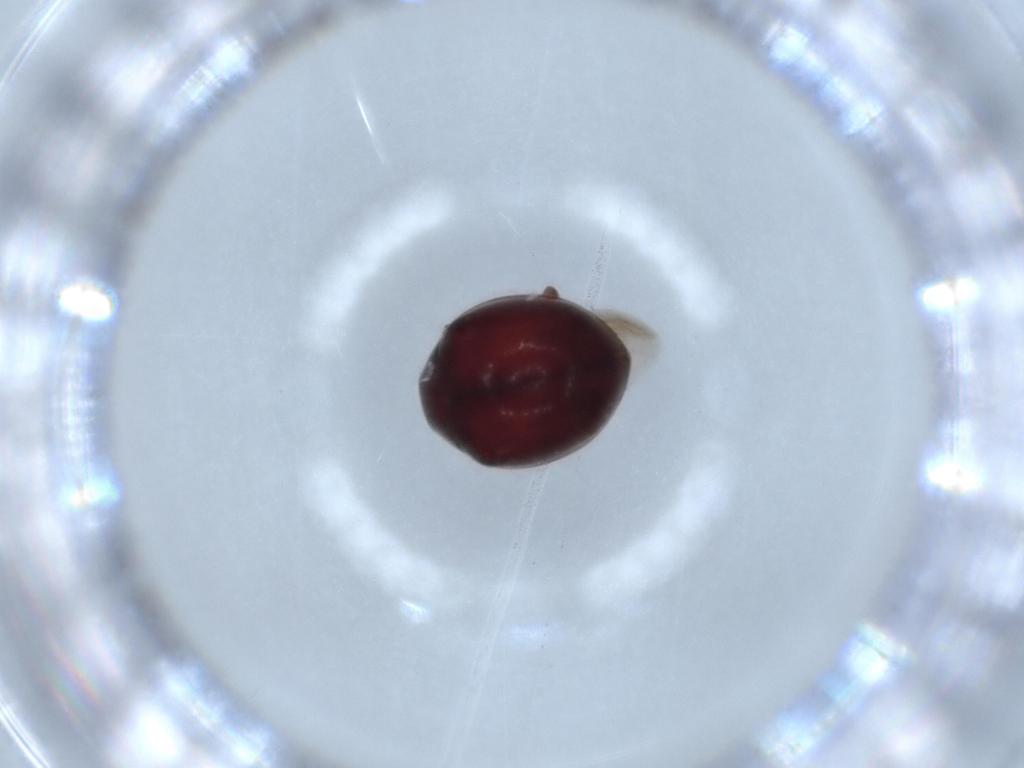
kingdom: Animalia
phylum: Arthropoda
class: Insecta
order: Coleoptera
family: Coccinellidae
